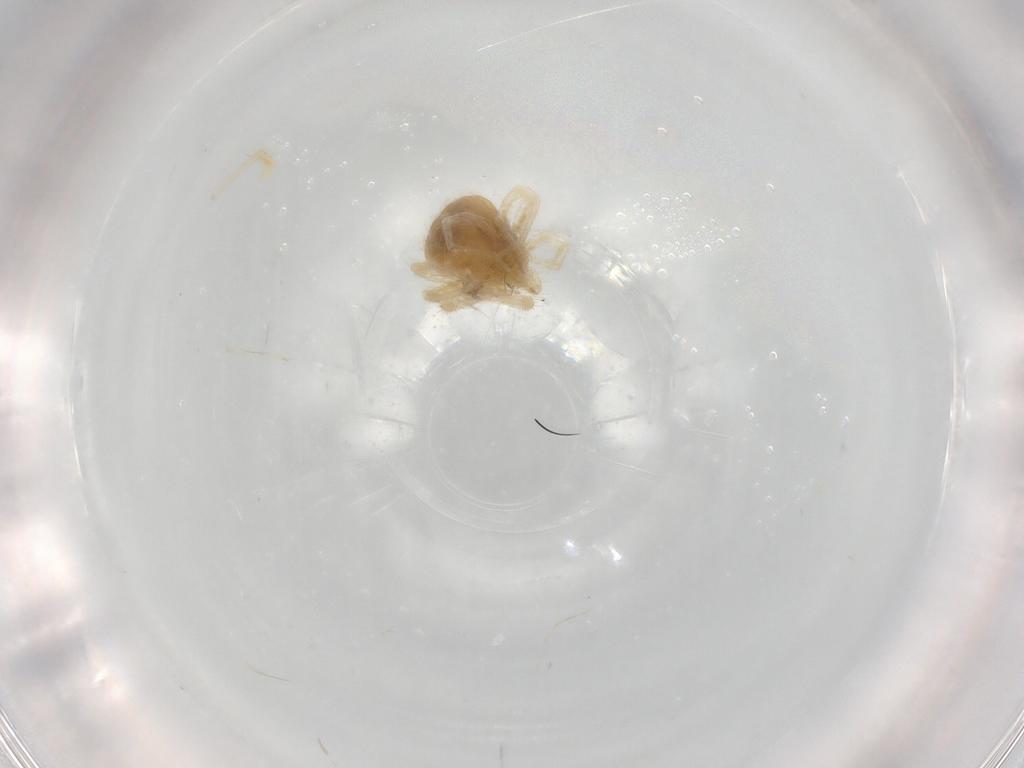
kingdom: Animalia
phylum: Arthropoda
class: Arachnida
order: Trombidiformes
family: Anystidae
